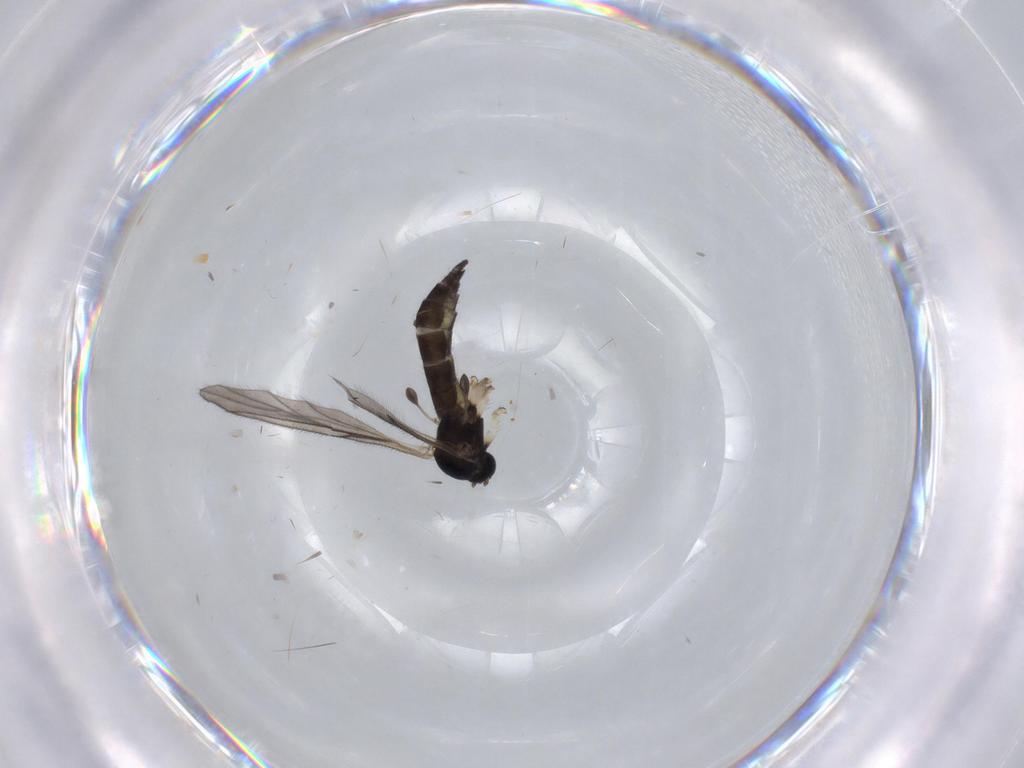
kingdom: Animalia
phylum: Arthropoda
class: Insecta
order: Diptera
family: Sciaridae
